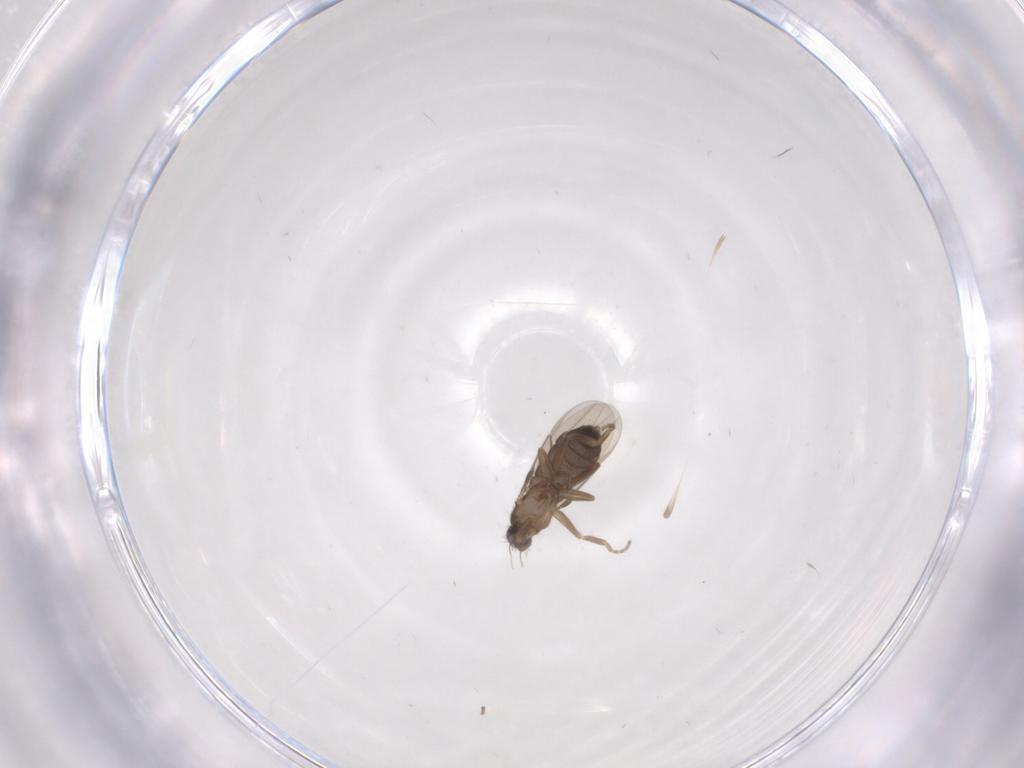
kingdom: Animalia
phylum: Arthropoda
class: Insecta
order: Diptera
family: Phoridae
